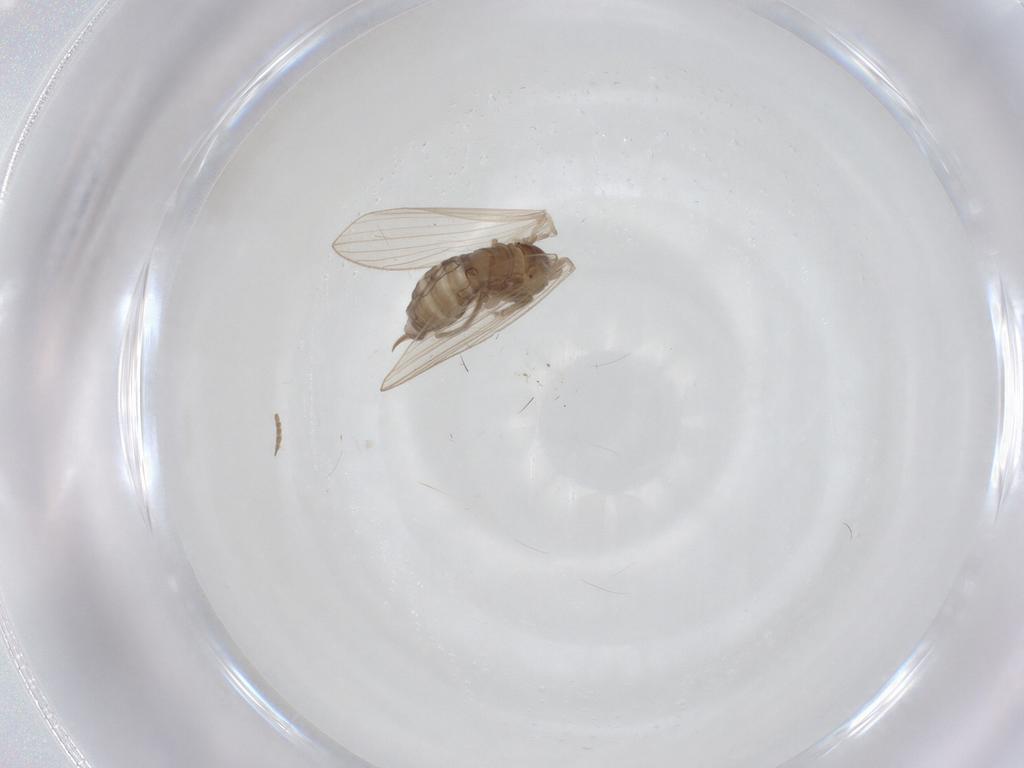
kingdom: Animalia
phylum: Arthropoda
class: Insecta
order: Diptera
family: Psychodidae
